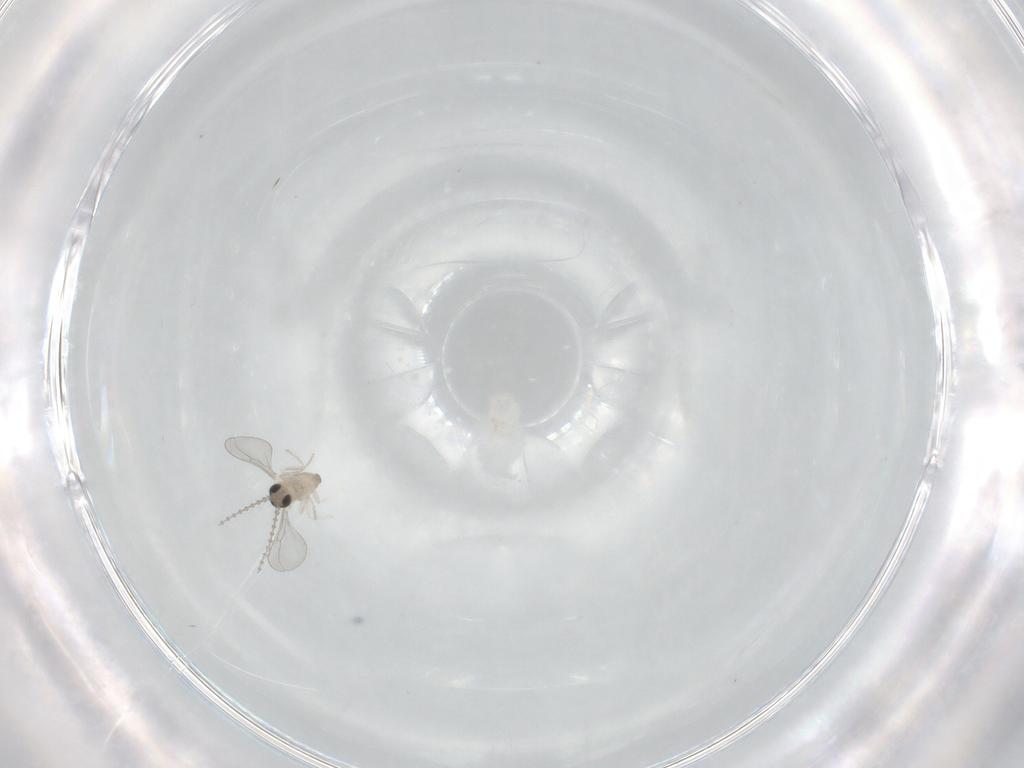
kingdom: Animalia
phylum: Arthropoda
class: Insecta
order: Diptera
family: Cecidomyiidae
